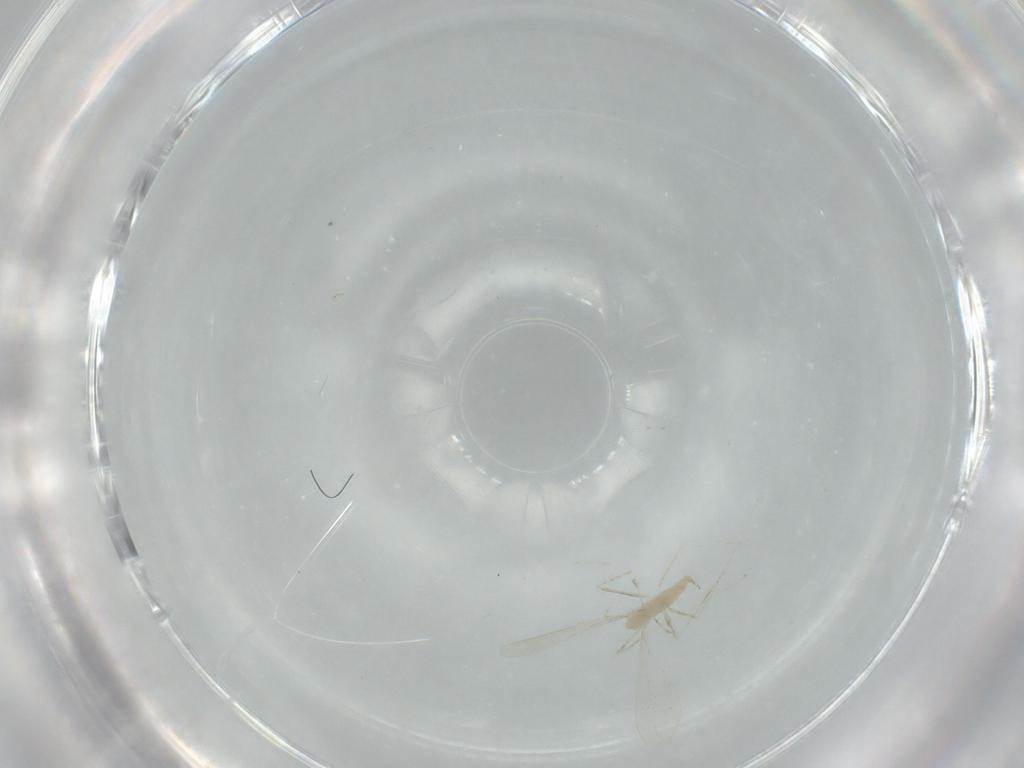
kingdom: Animalia
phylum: Arthropoda
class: Insecta
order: Diptera
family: Cecidomyiidae
